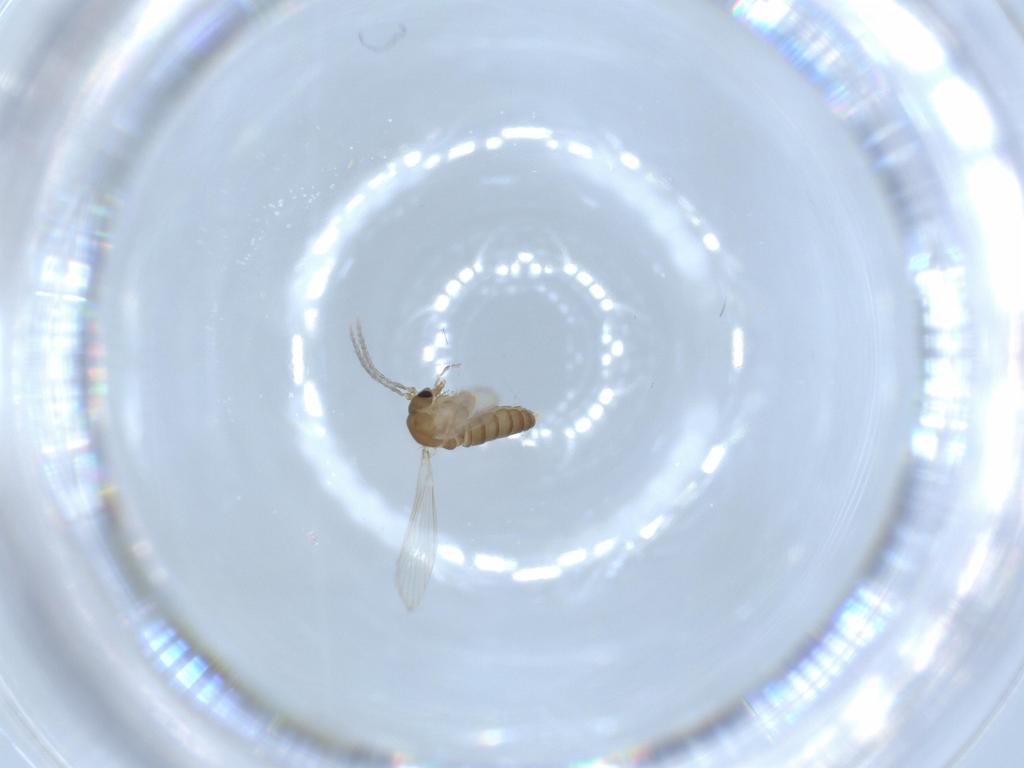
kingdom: Animalia
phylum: Arthropoda
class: Insecta
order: Diptera
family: Psychodidae
